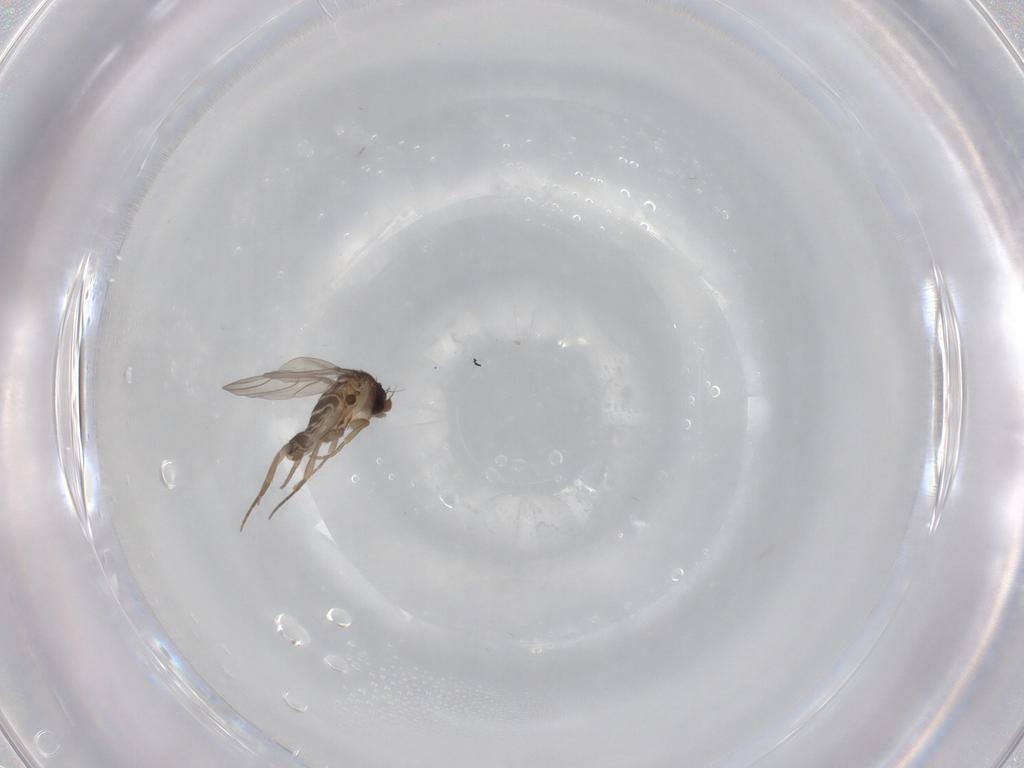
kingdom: Animalia
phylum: Arthropoda
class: Insecta
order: Diptera
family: Phoridae
